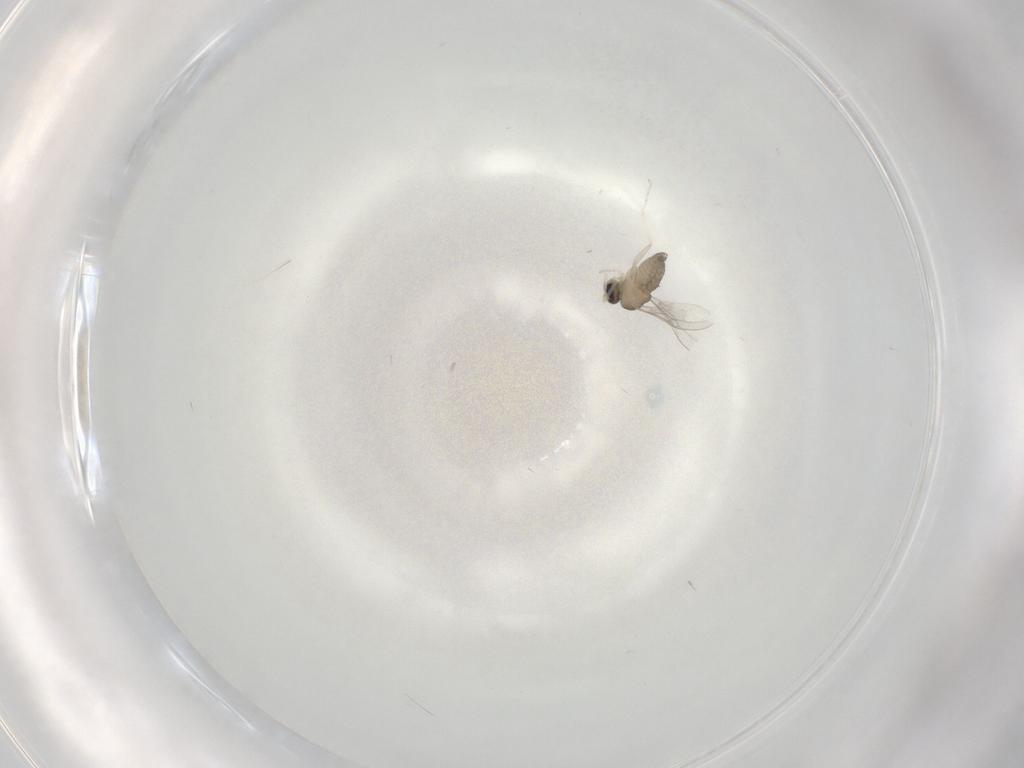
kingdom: Animalia
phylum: Arthropoda
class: Insecta
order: Diptera
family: Cecidomyiidae
